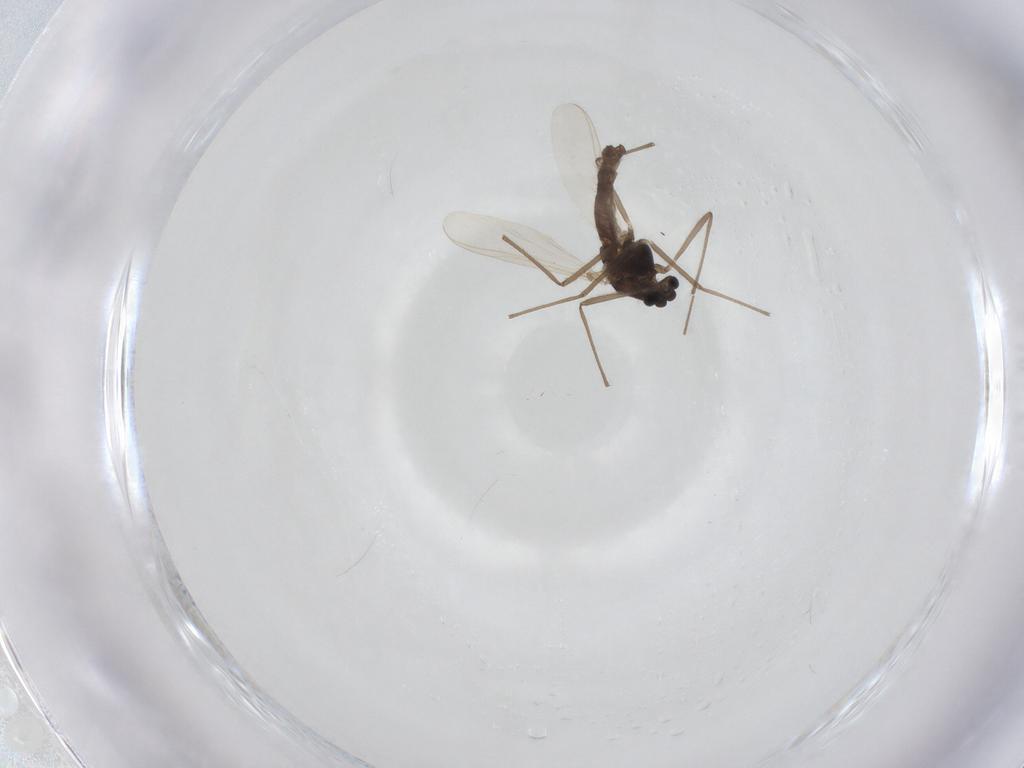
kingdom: Animalia
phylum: Arthropoda
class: Insecta
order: Diptera
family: Chironomidae
